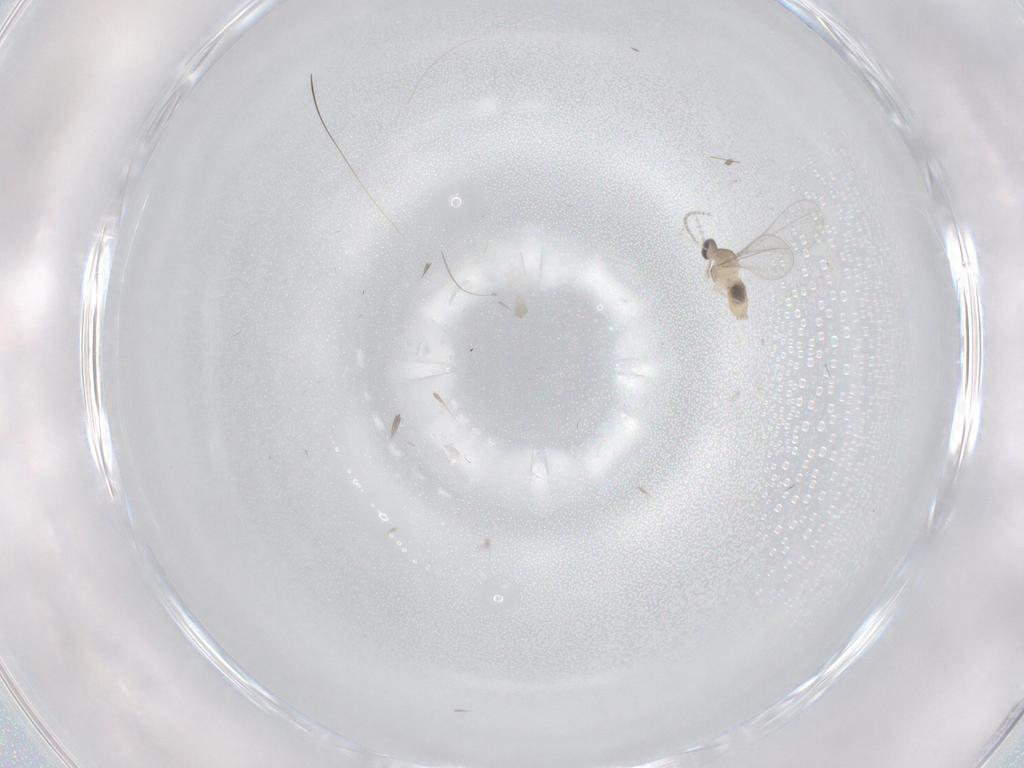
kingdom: Animalia
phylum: Arthropoda
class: Insecta
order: Diptera
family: Cecidomyiidae
